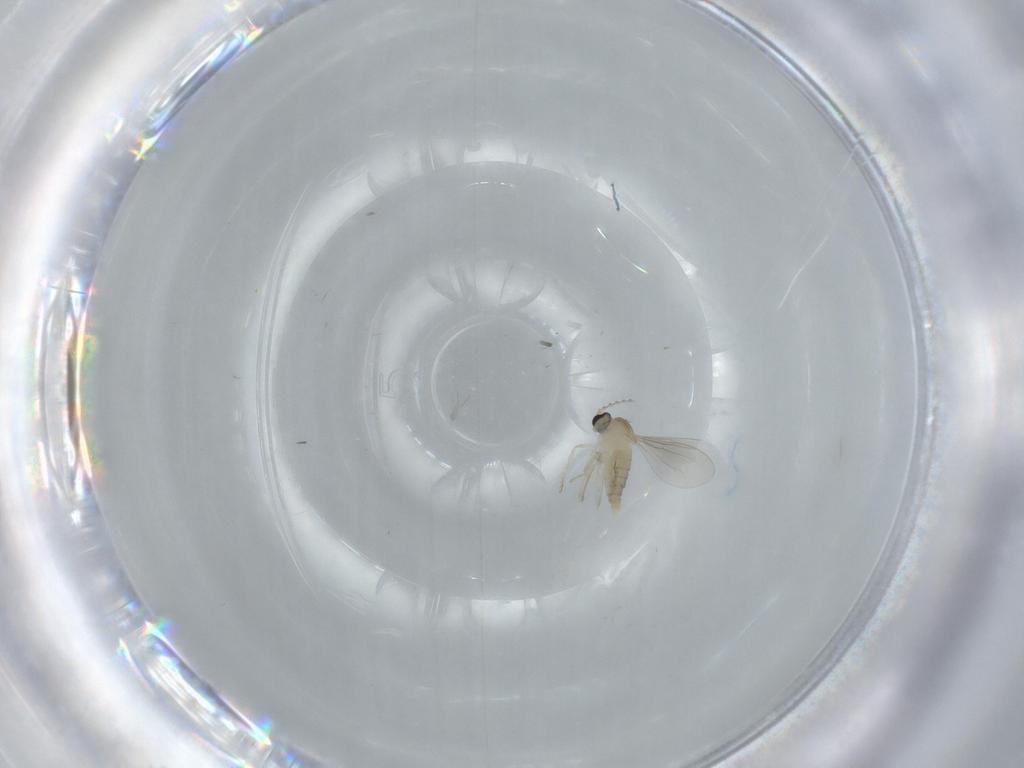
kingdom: Animalia
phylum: Arthropoda
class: Insecta
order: Diptera
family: Cecidomyiidae
